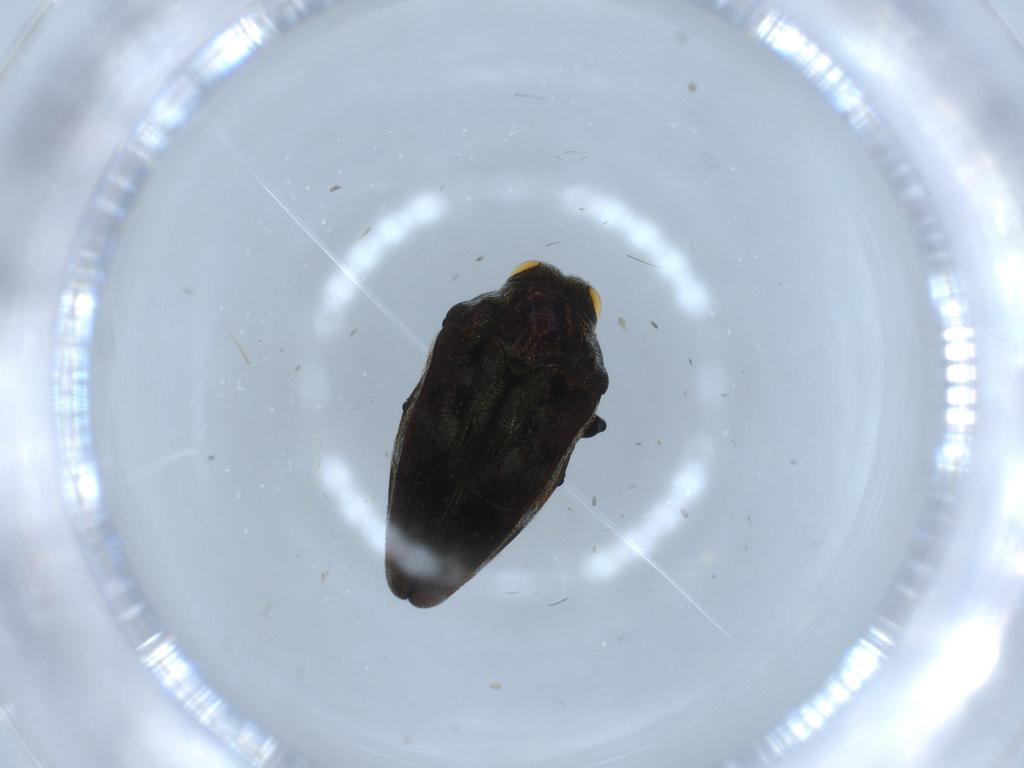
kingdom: Animalia
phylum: Arthropoda
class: Insecta
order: Coleoptera
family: Buprestidae
